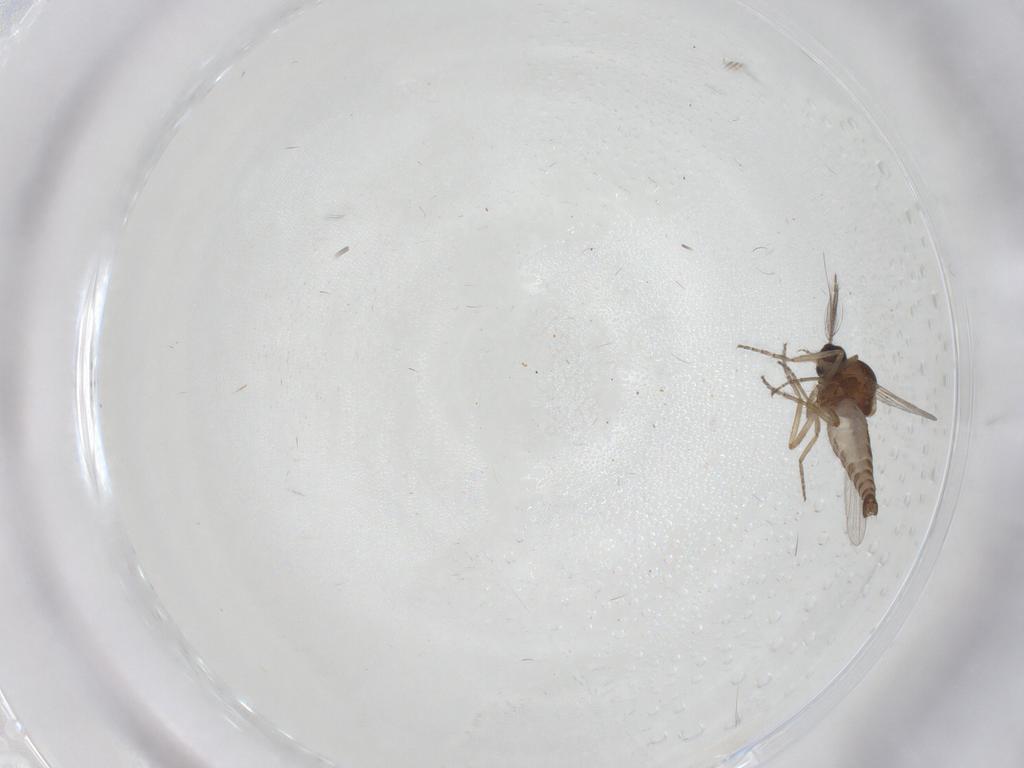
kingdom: Animalia
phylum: Arthropoda
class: Insecta
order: Diptera
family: Ceratopogonidae
